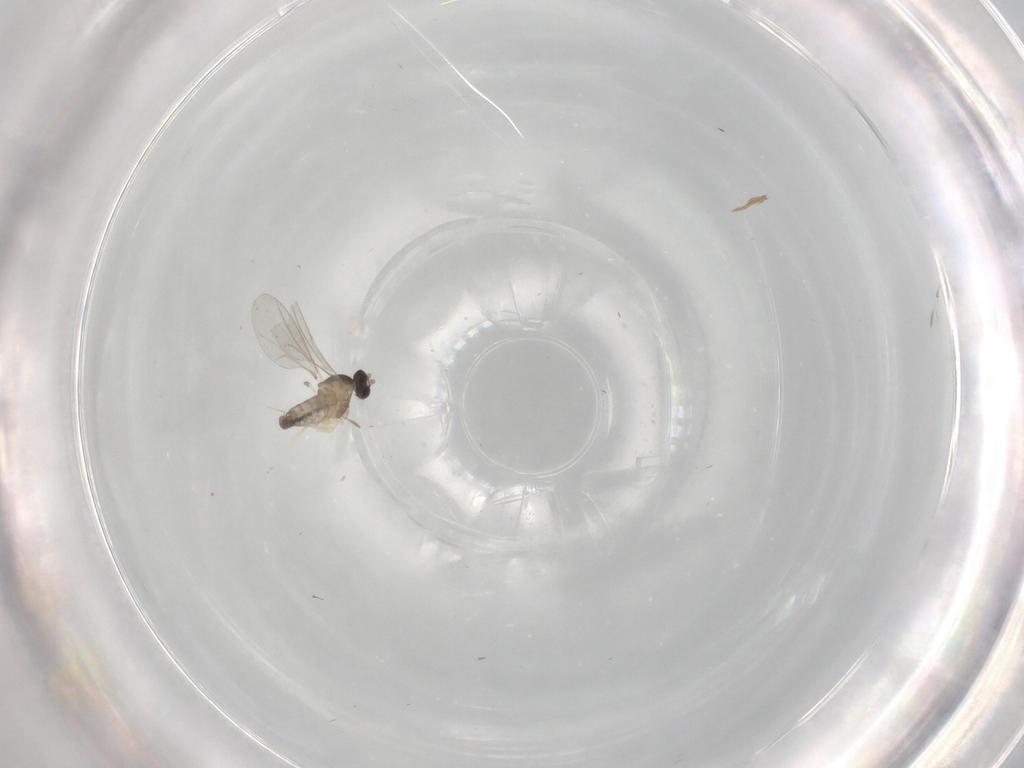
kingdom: Animalia
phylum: Arthropoda
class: Insecta
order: Diptera
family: Cecidomyiidae
